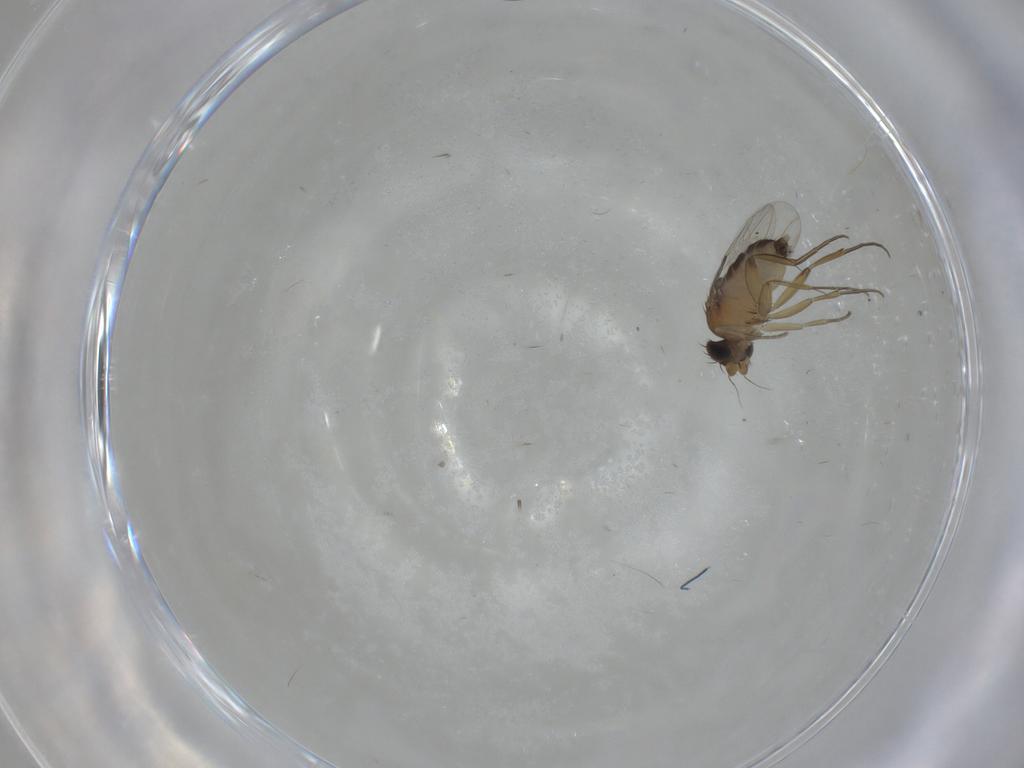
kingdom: Animalia
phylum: Arthropoda
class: Insecta
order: Diptera
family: Phoridae
